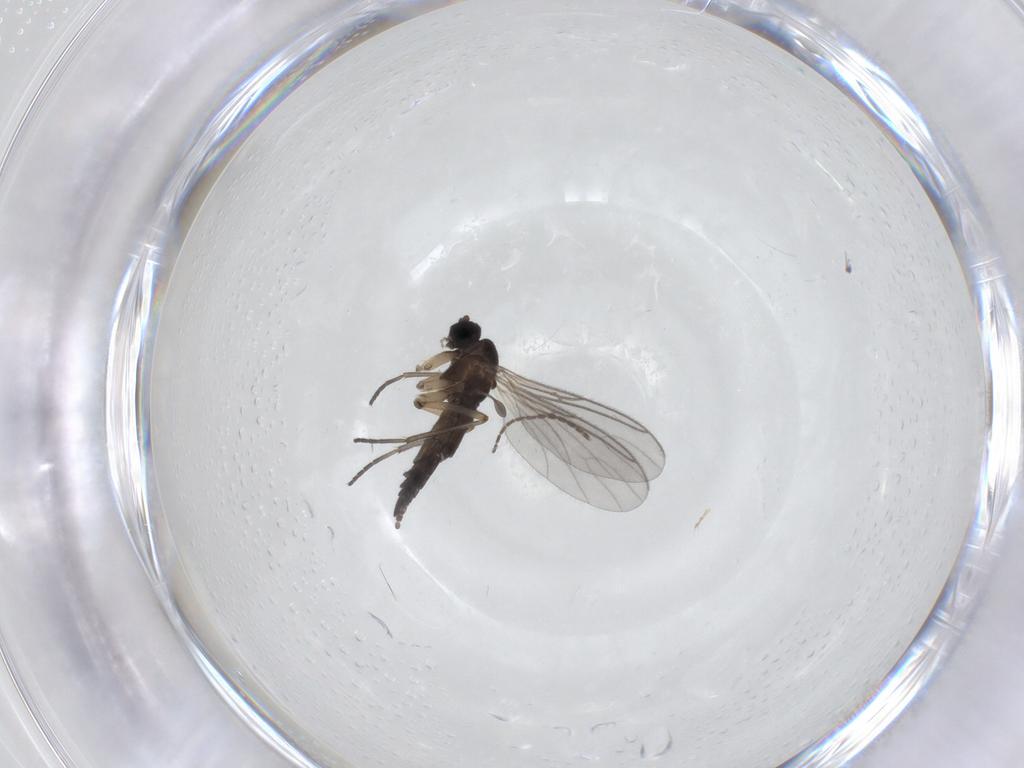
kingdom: Animalia
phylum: Arthropoda
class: Insecta
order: Diptera
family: Sciaridae
